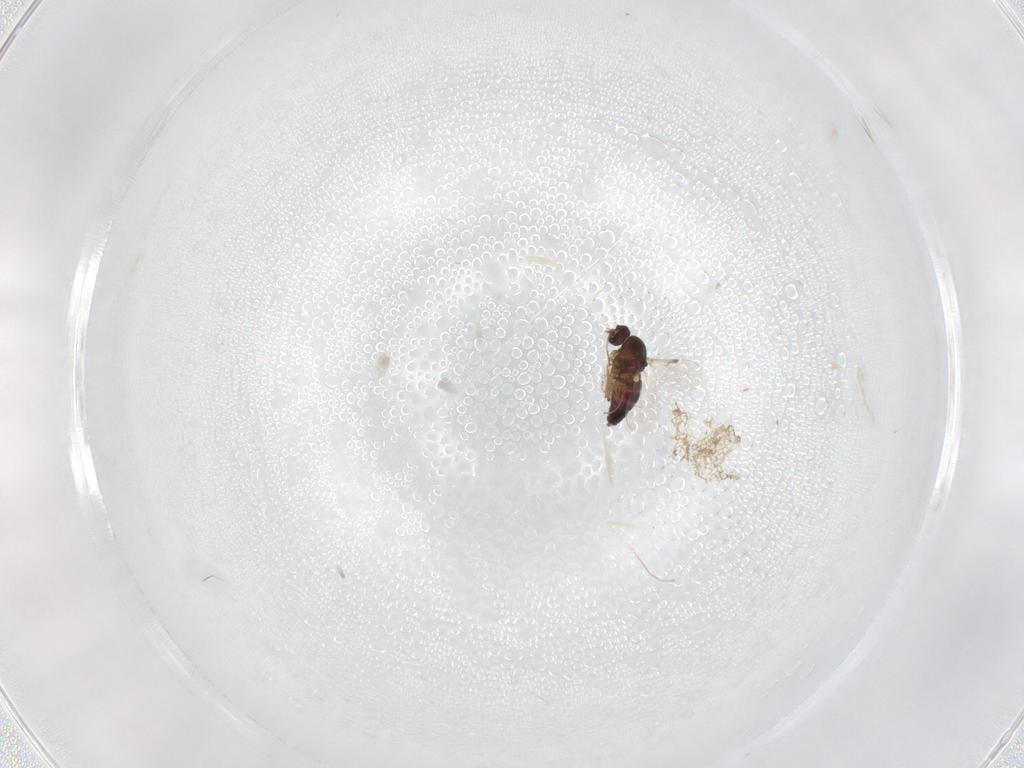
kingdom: Animalia
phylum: Arthropoda
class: Insecta
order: Diptera
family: Ceratopogonidae
